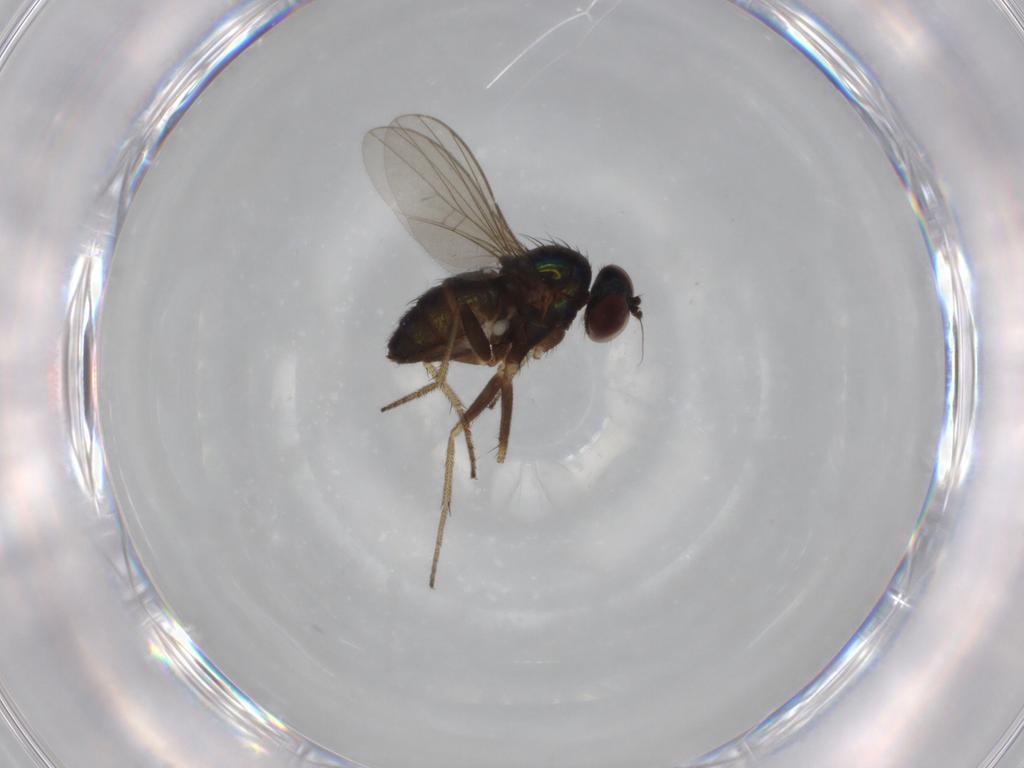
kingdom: Animalia
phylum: Arthropoda
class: Insecta
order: Diptera
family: Dolichopodidae
